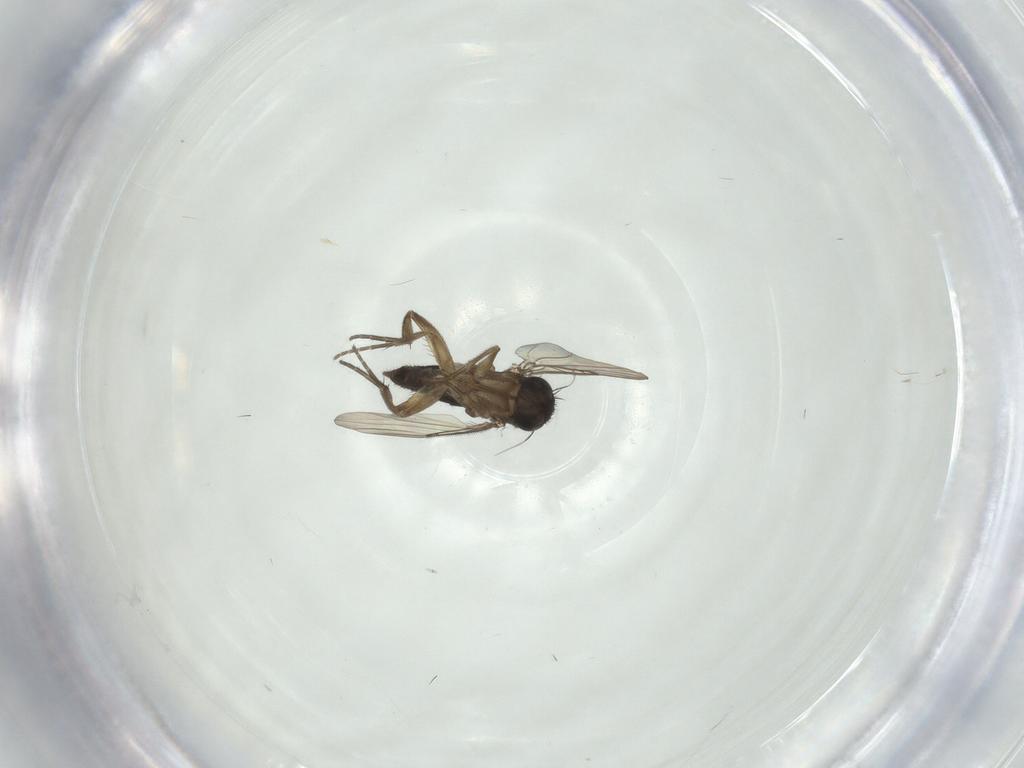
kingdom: Animalia
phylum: Arthropoda
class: Insecta
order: Diptera
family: Phoridae
